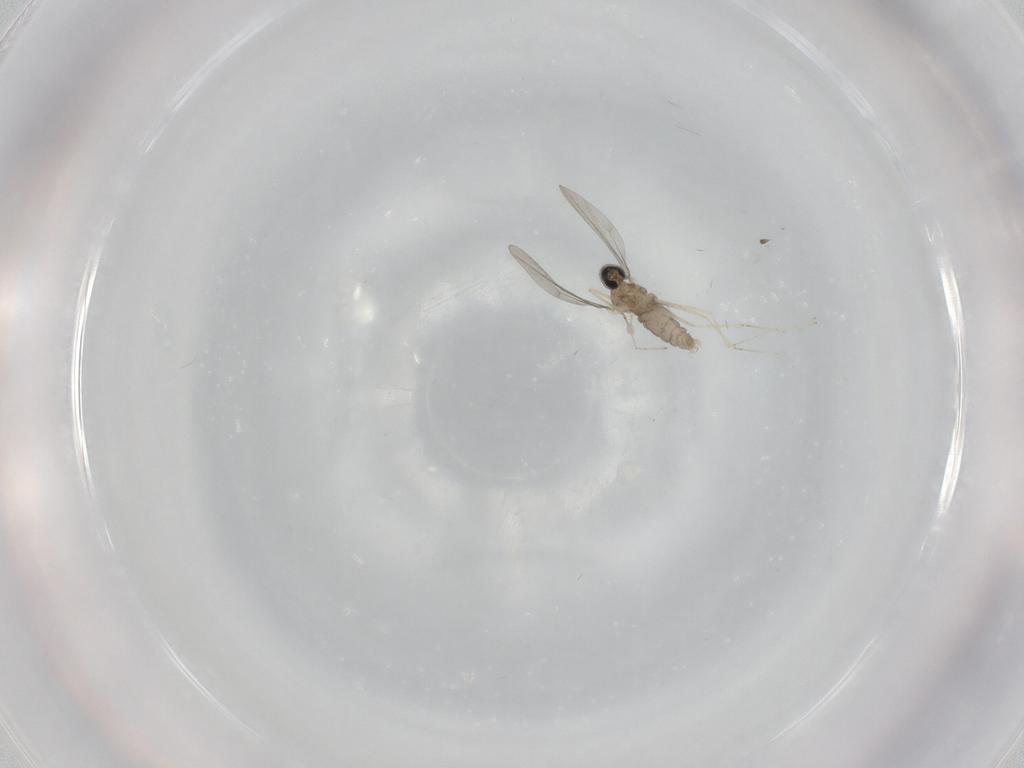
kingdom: Animalia
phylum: Arthropoda
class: Insecta
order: Diptera
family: Cecidomyiidae
